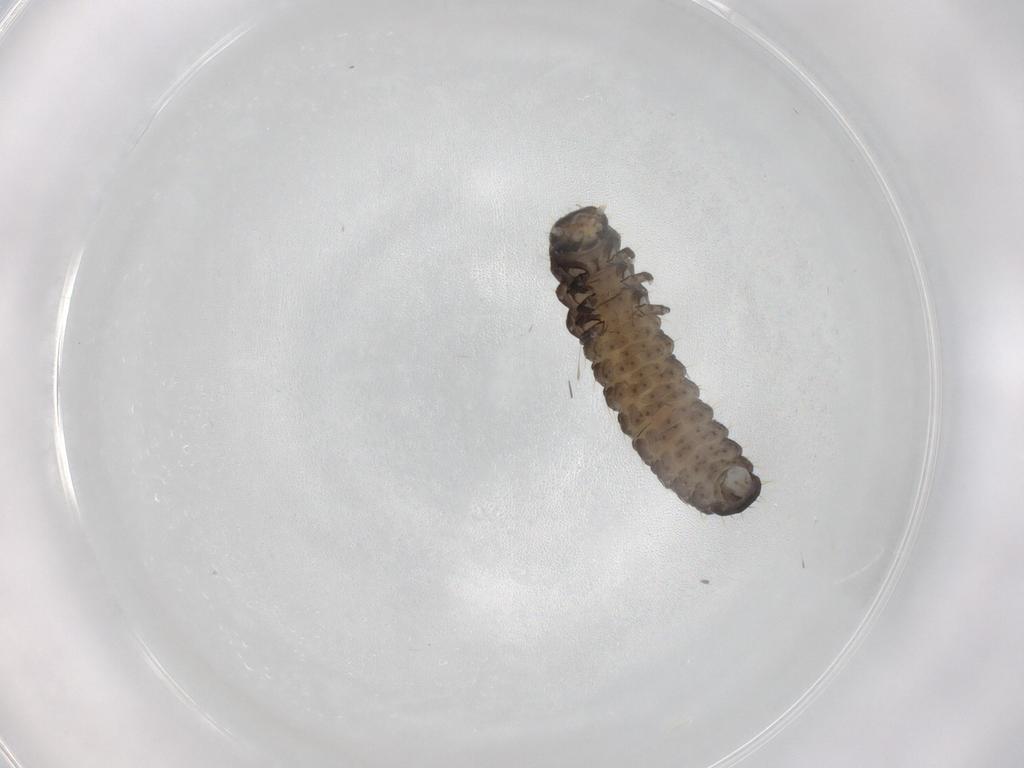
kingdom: Animalia
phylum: Arthropoda
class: Insecta
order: Coleoptera
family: Chrysomelidae
